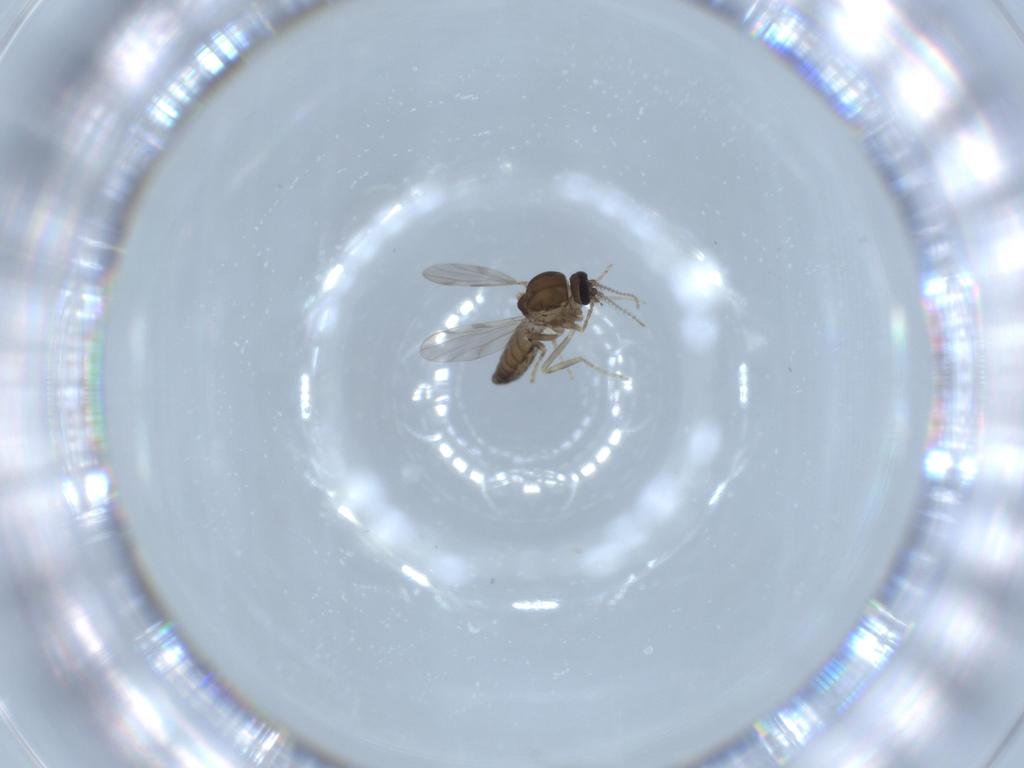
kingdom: Animalia
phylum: Arthropoda
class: Insecta
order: Diptera
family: Ceratopogonidae
